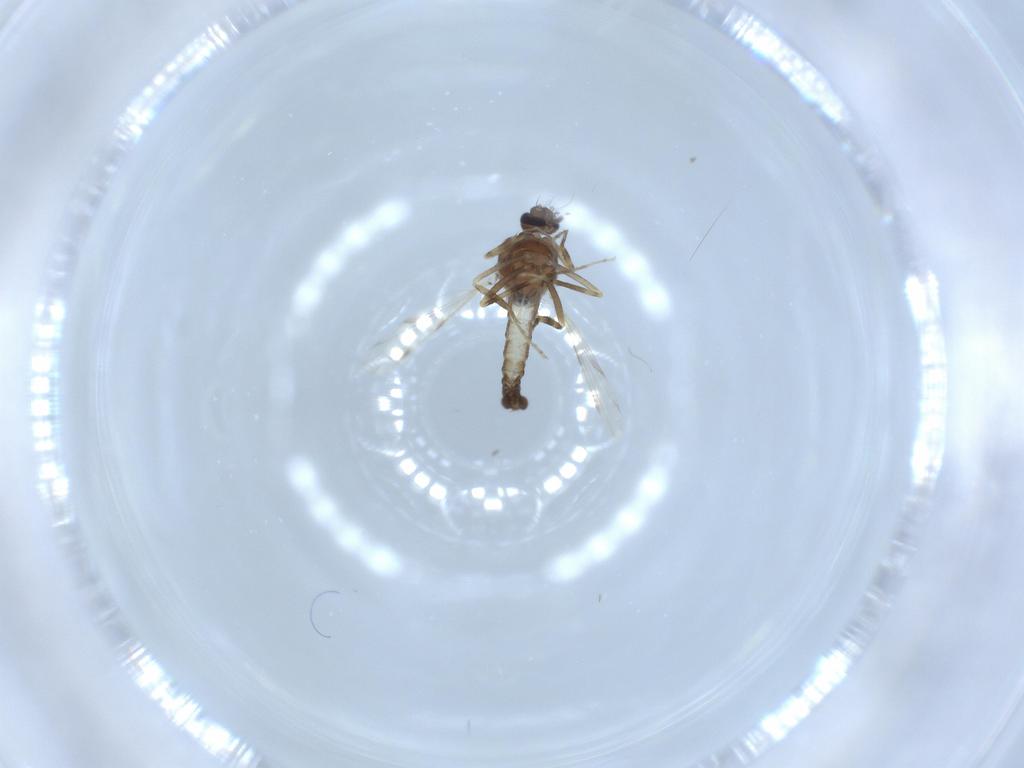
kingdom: Animalia
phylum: Arthropoda
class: Insecta
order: Diptera
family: Ceratopogonidae
